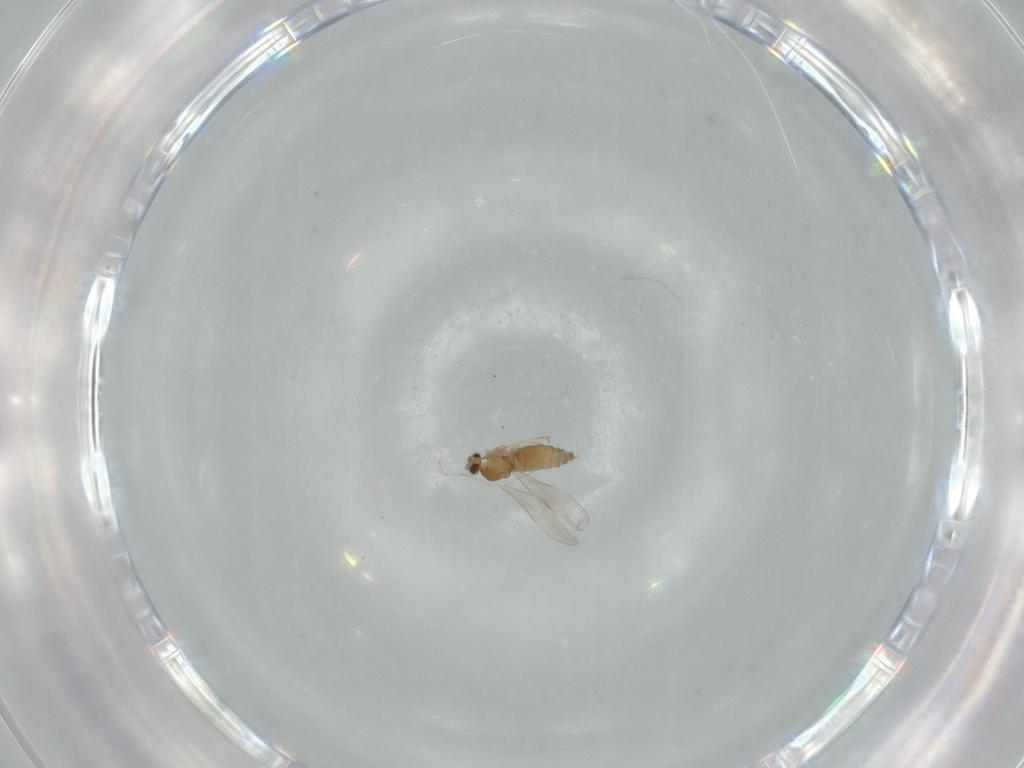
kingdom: Animalia
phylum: Arthropoda
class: Insecta
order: Diptera
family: Cecidomyiidae
